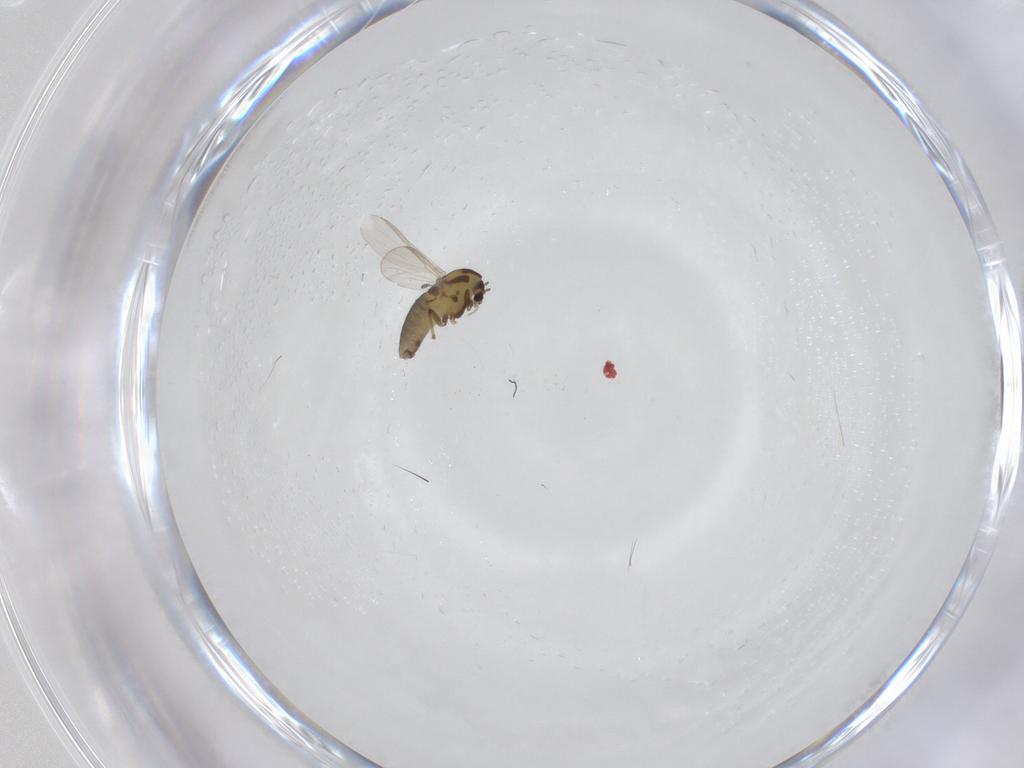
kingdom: Animalia
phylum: Arthropoda
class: Insecta
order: Diptera
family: Chironomidae
